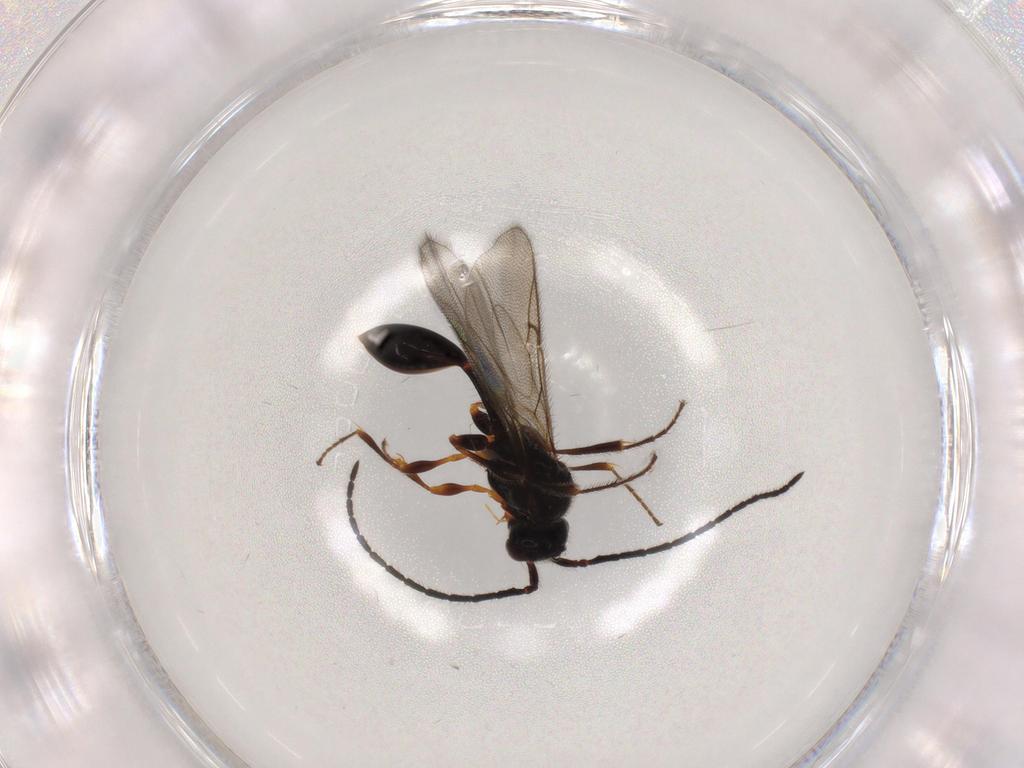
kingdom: Animalia
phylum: Arthropoda
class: Insecta
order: Hymenoptera
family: Diapriidae
